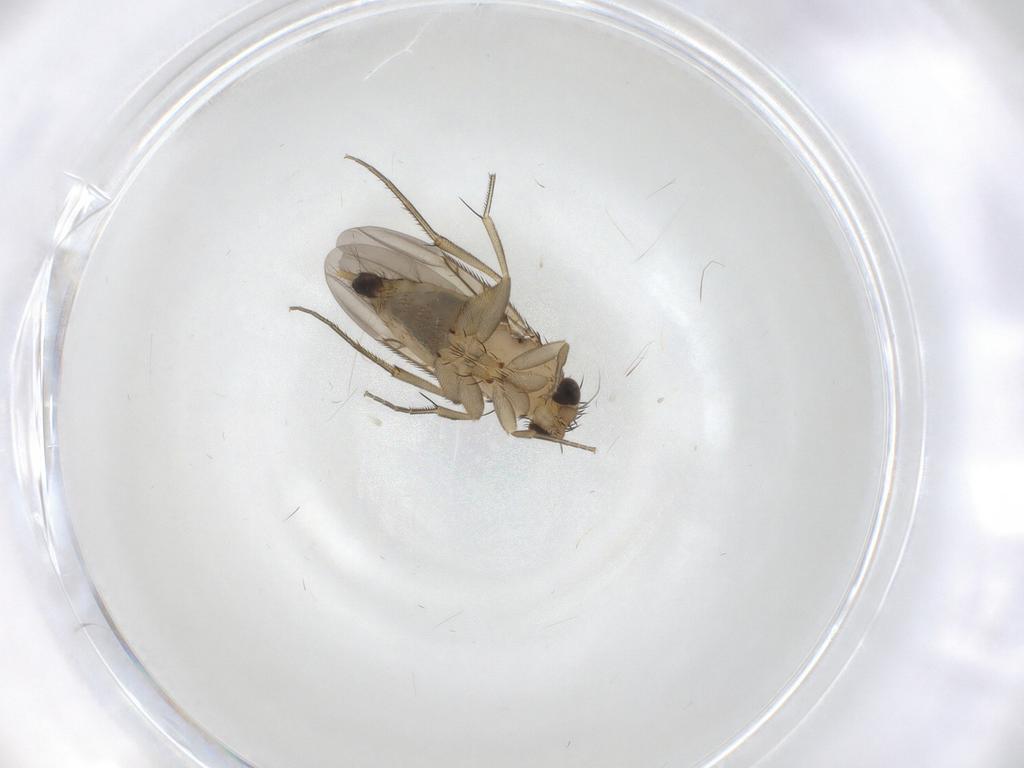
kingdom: Animalia
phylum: Arthropoda
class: Insecta
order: Diptera
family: Phoridae
